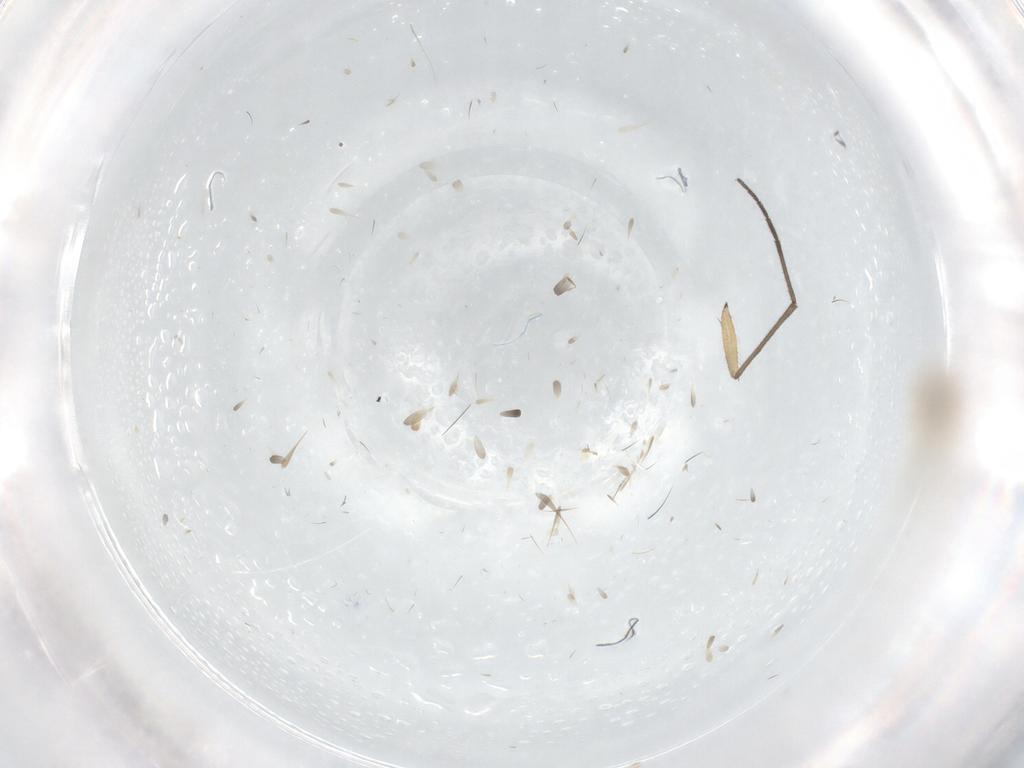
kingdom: Animalia
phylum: Arthropoda
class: Insecta
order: Diptera
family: Cecidomyiidae
